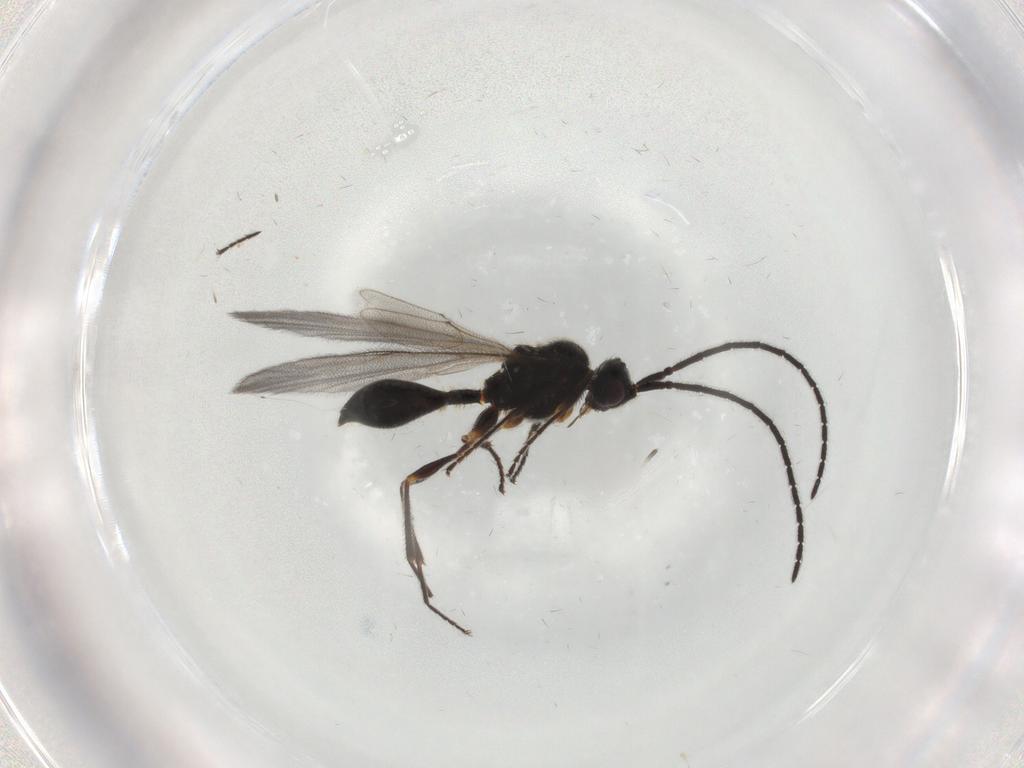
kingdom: Animalia
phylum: Arthropoda
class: Insecta
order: Hymenoptera
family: Diapriidae
